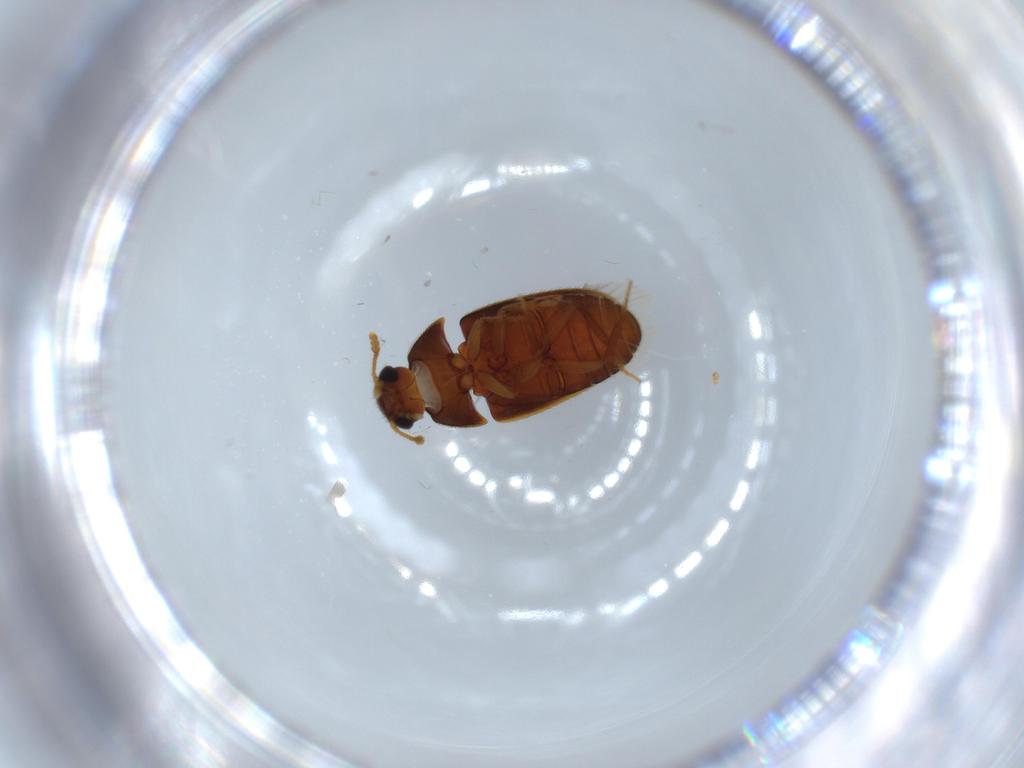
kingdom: Animalia
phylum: Arthropoda
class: Insecta
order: Coleoptera
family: Mycetophagidae
